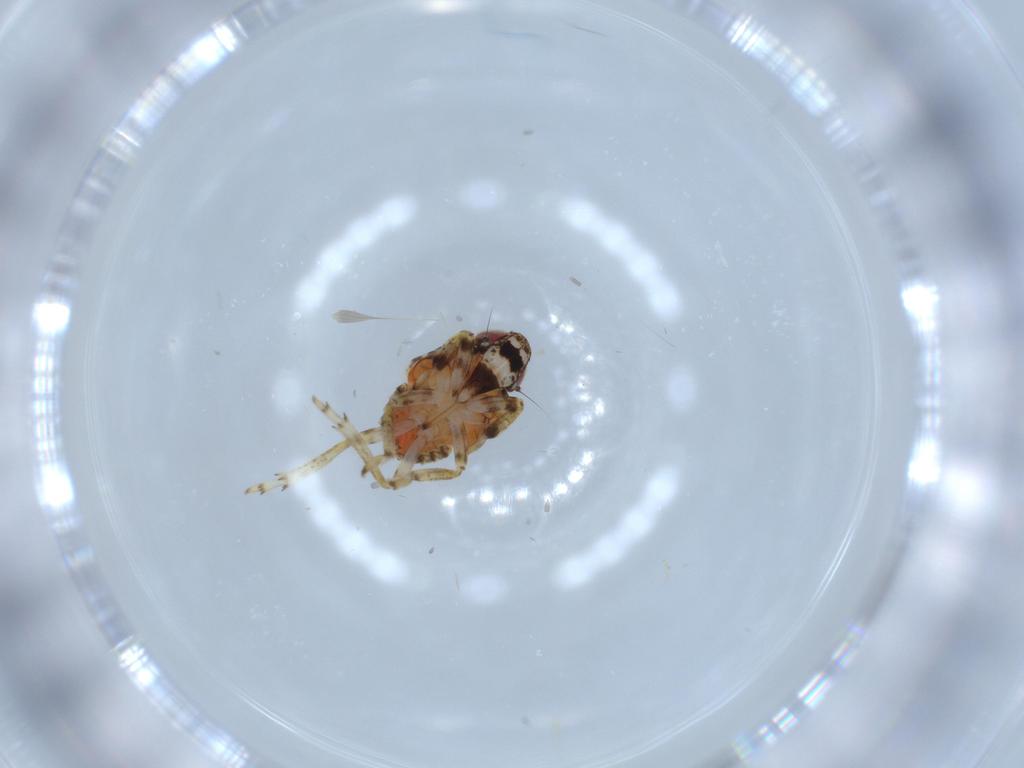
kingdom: Animalia
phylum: Arthropoda
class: Insecta
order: Hemiptera
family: Issidae
